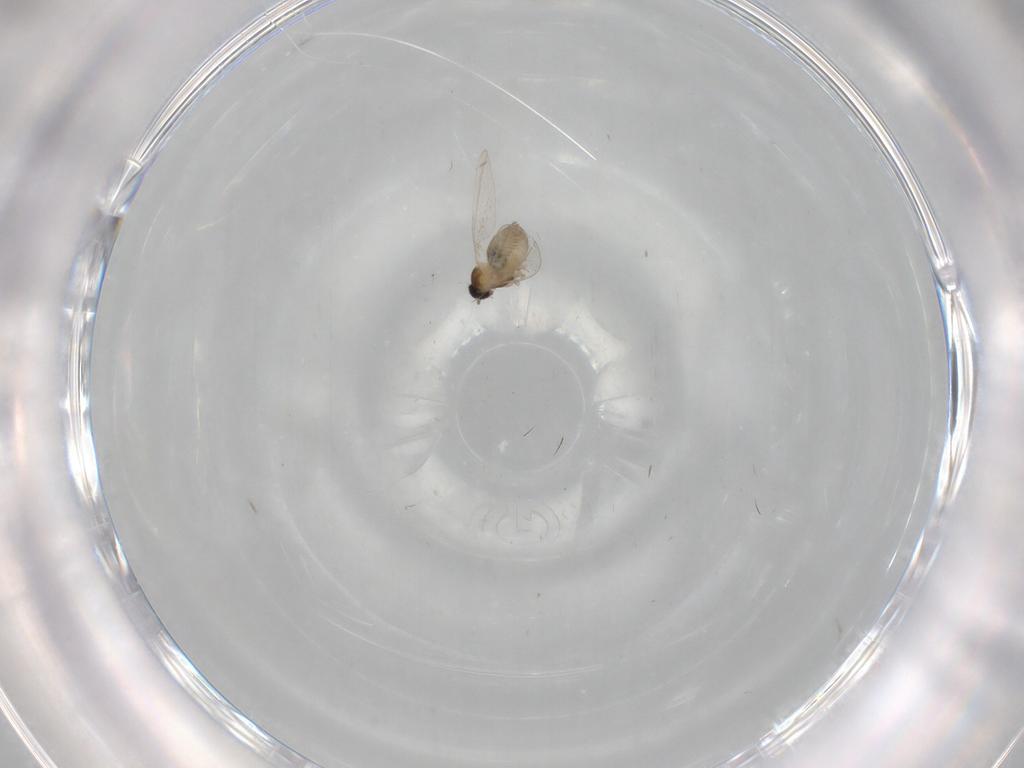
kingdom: Animalia
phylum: Arthropoda
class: Insecta
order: Diptera
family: Cecidomyiidae
